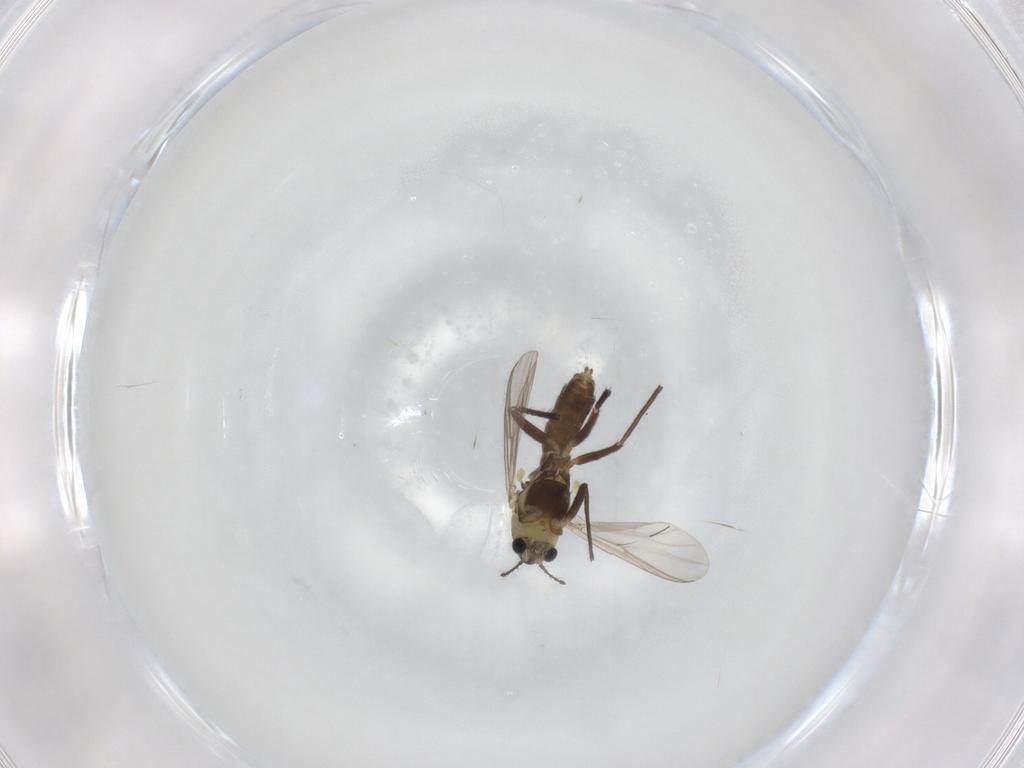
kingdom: Animalia
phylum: Arthropoda
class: Insecta
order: Diptera
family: Chironomidae
